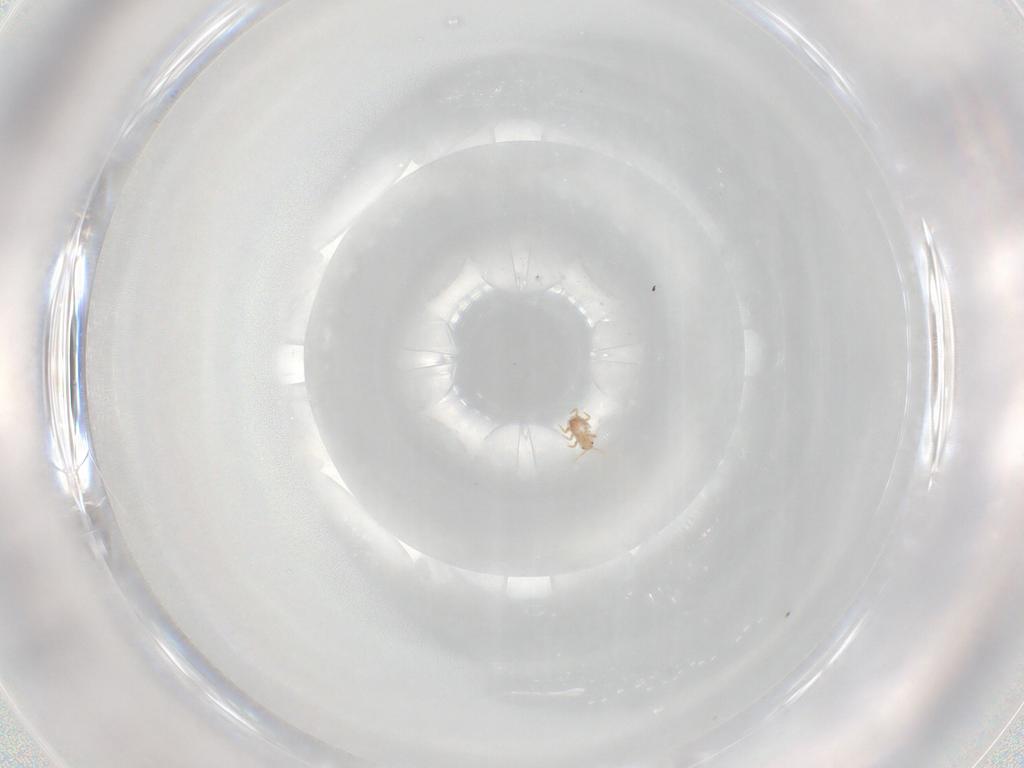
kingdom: Animalia
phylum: Arthropoda
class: Insecta
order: Hemiptera
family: Pseudococcidae
